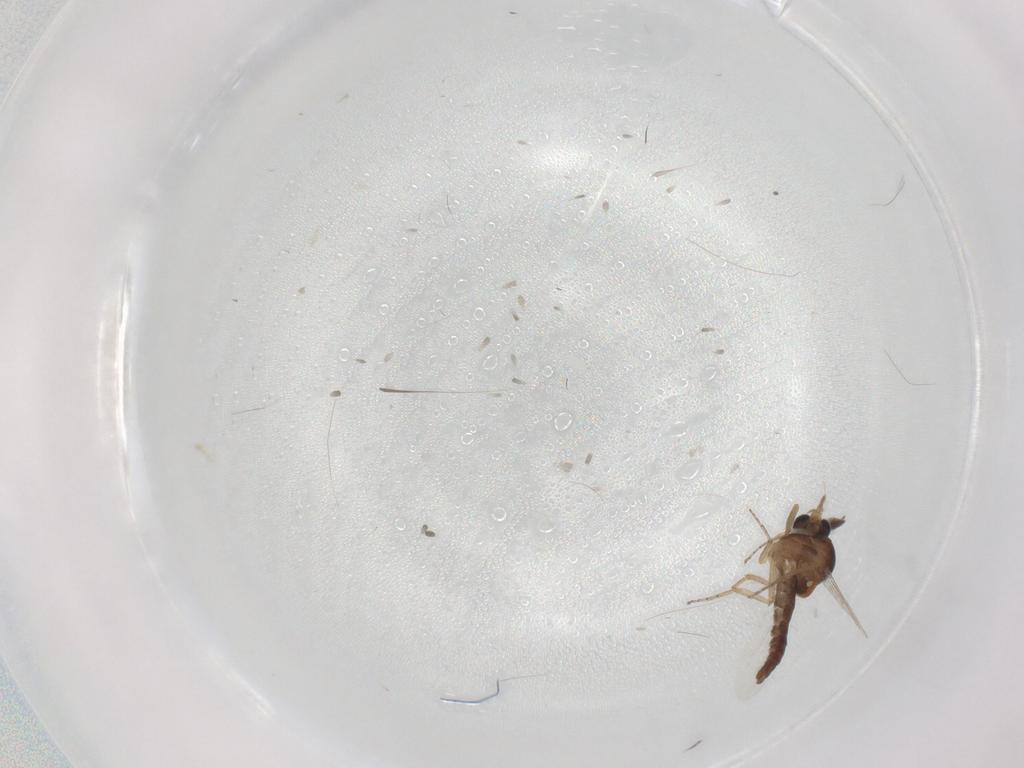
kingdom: Animalia
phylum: Arthropoda
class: Insecta
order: Diptera
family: Ceratopogonidae
